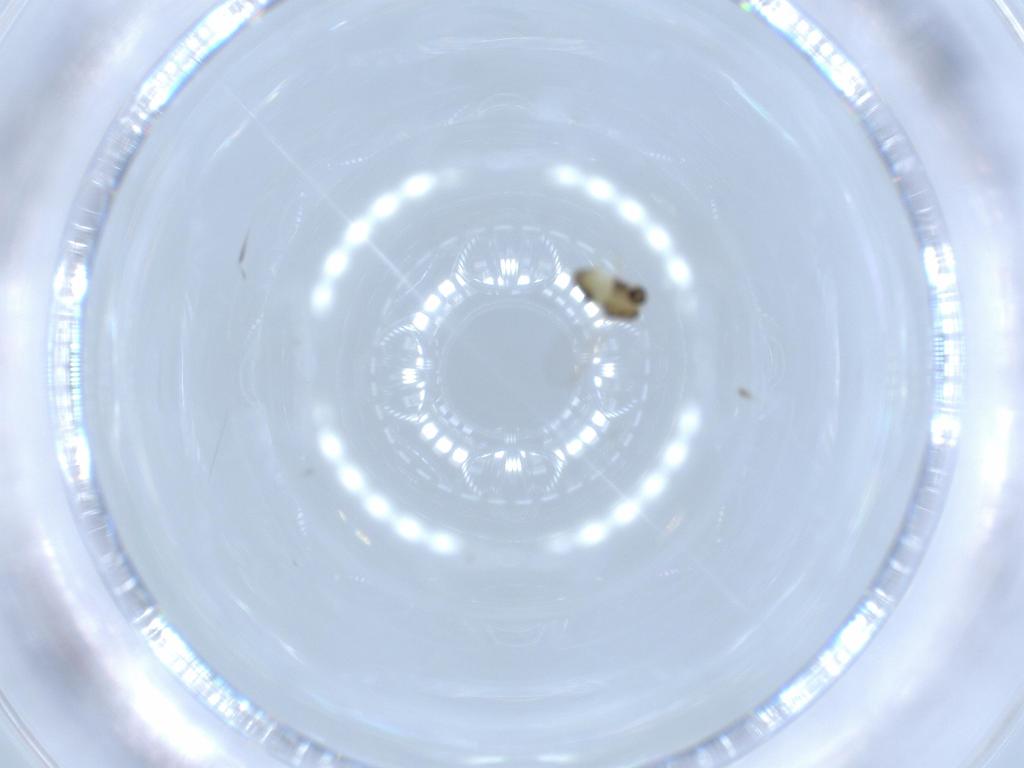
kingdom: Animalia
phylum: Arthropoda
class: Insecta
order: Diptera
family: Chironomidae
